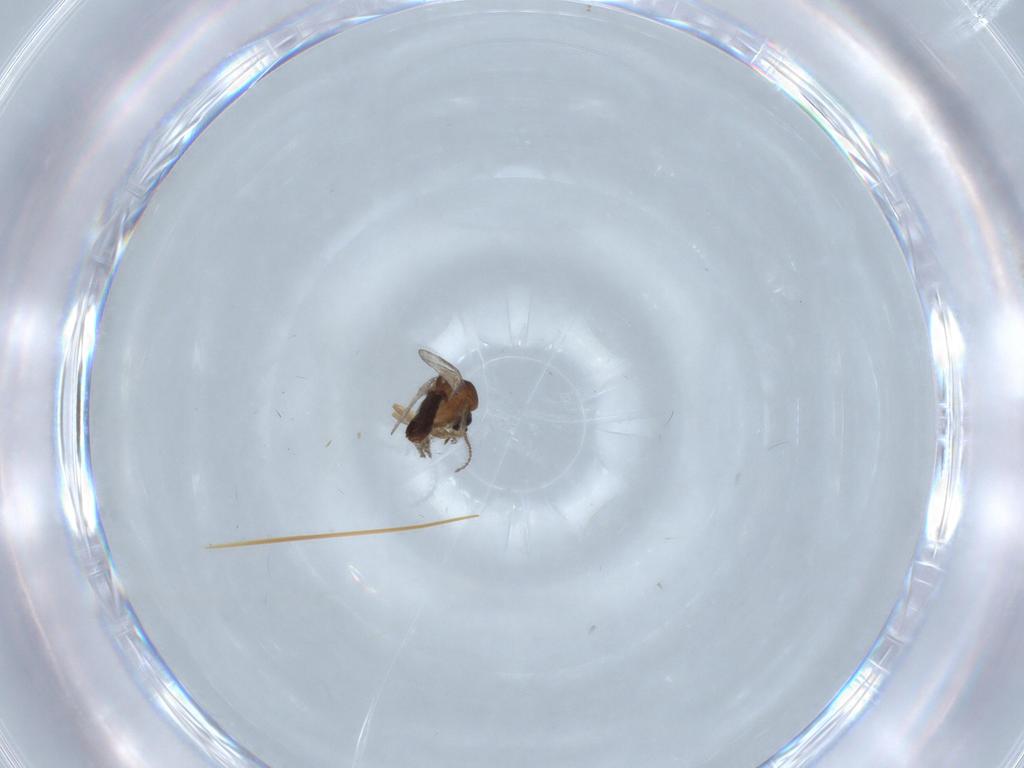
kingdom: Animalia
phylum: Arthropoda
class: Insecta
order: Diptera
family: Ceratopogonidae
